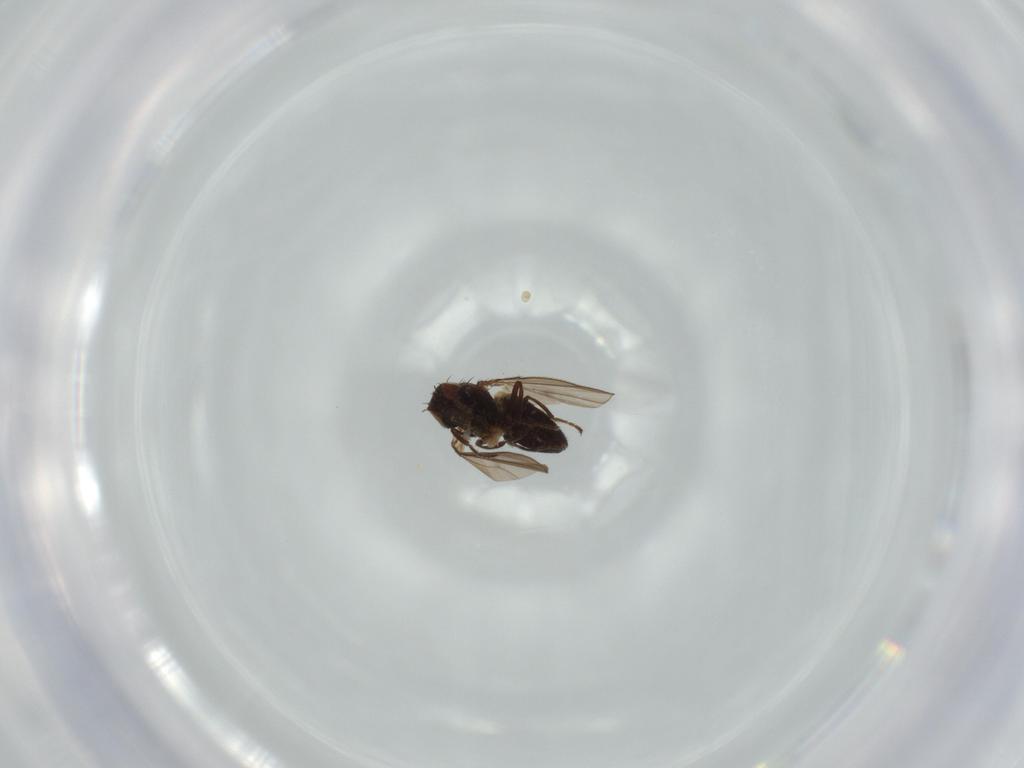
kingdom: Animalia
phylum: Arthropoda
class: Insecta
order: Diptera
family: Ephydridae
